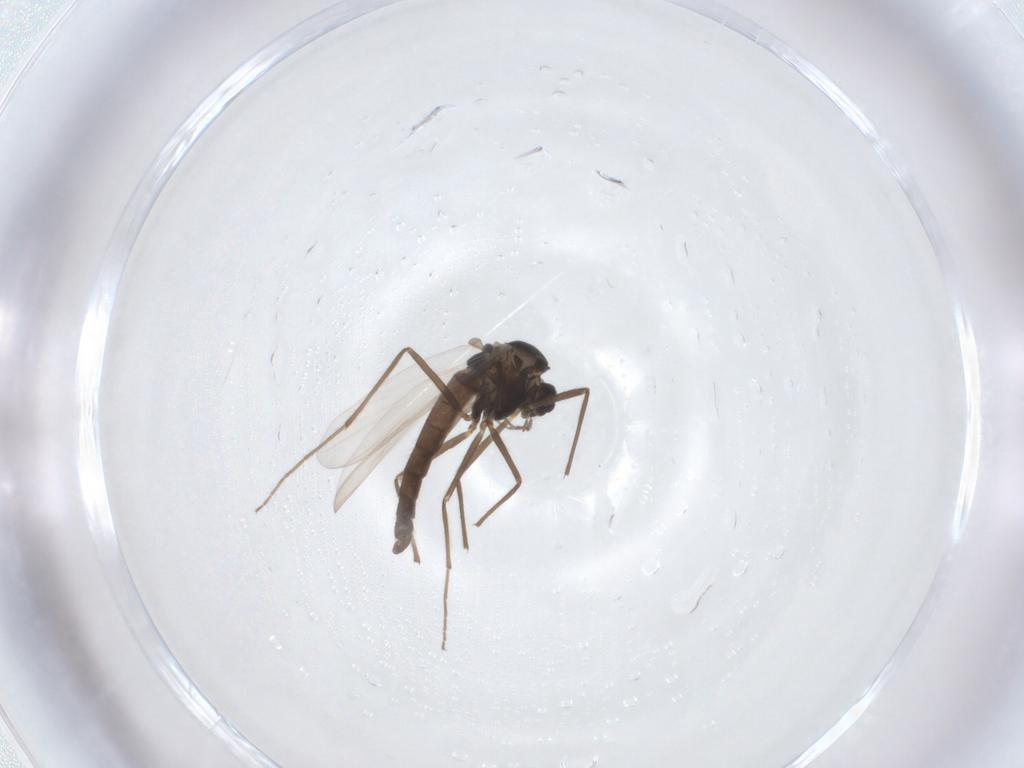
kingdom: Animalia
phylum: Arthropoda
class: Insecta
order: Diptera
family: Chironomidae
